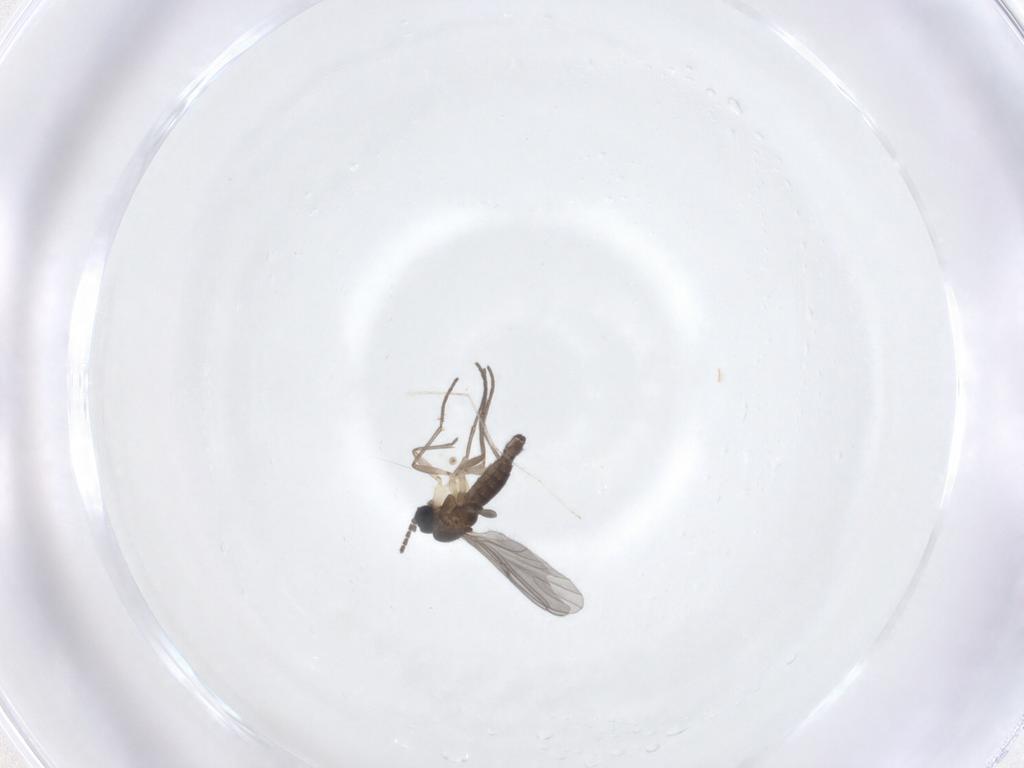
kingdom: Animalia
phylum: Arthropoda
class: Insecta
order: Diptera
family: Sciaridae
